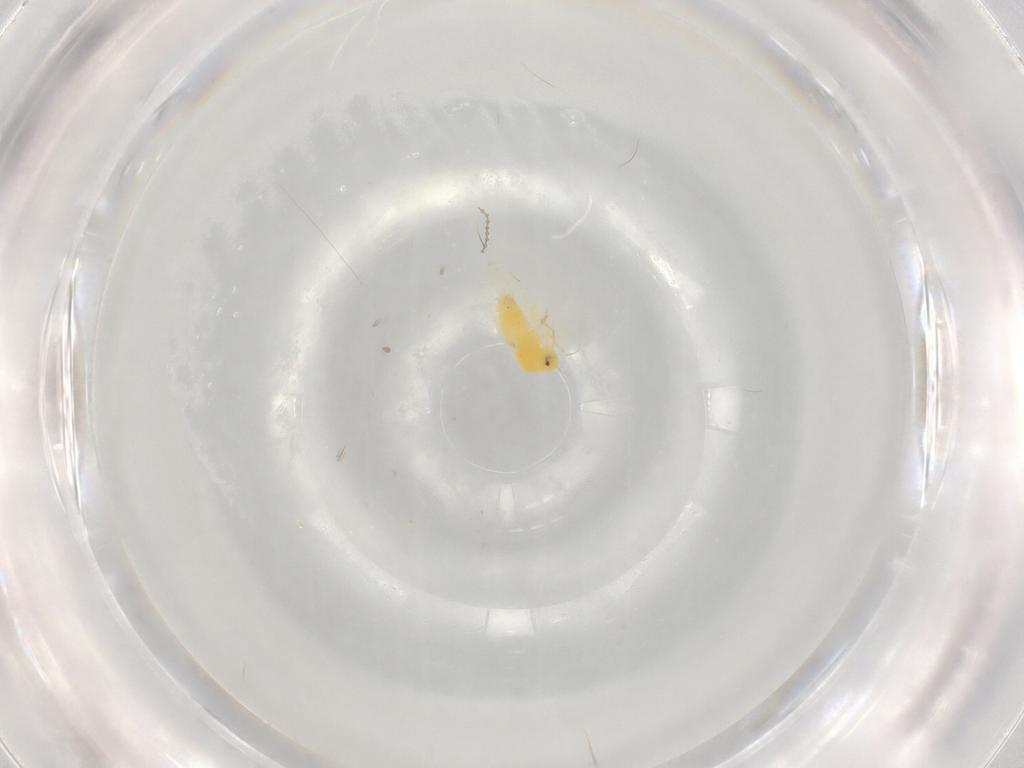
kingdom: Animalia
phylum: Arthropoda
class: Insecta
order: Hemiptera
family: Aleyrodidae
